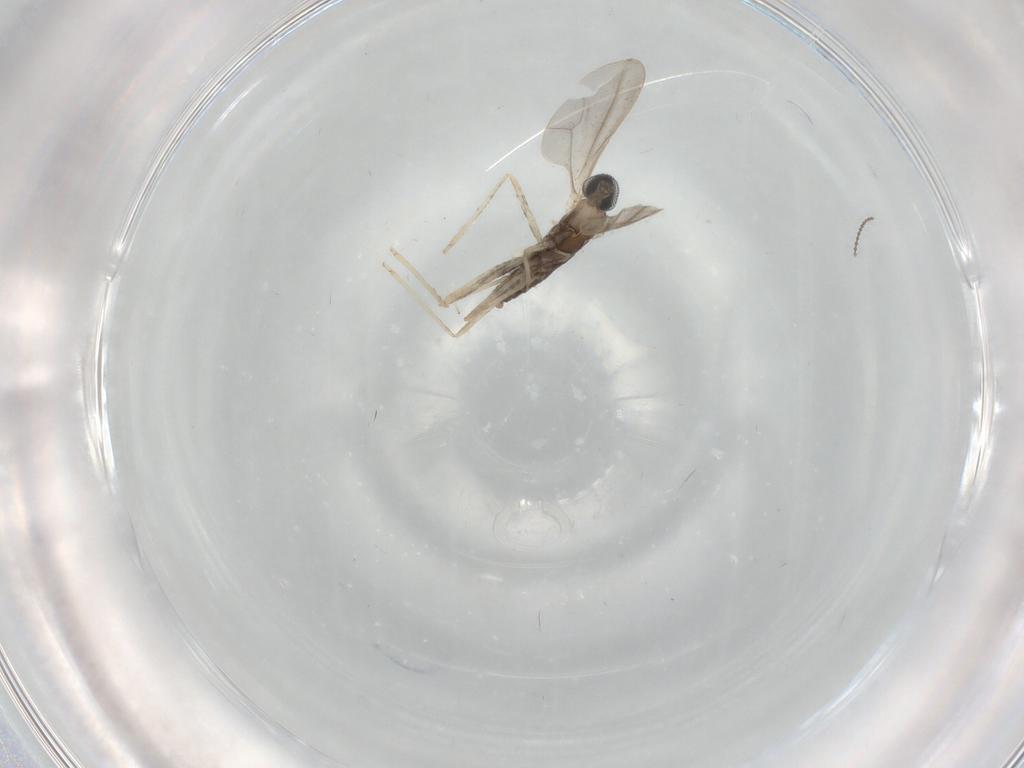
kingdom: Animalia
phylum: Arthropoda
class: Insecta
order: Diptera
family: Cecidomyiidae
